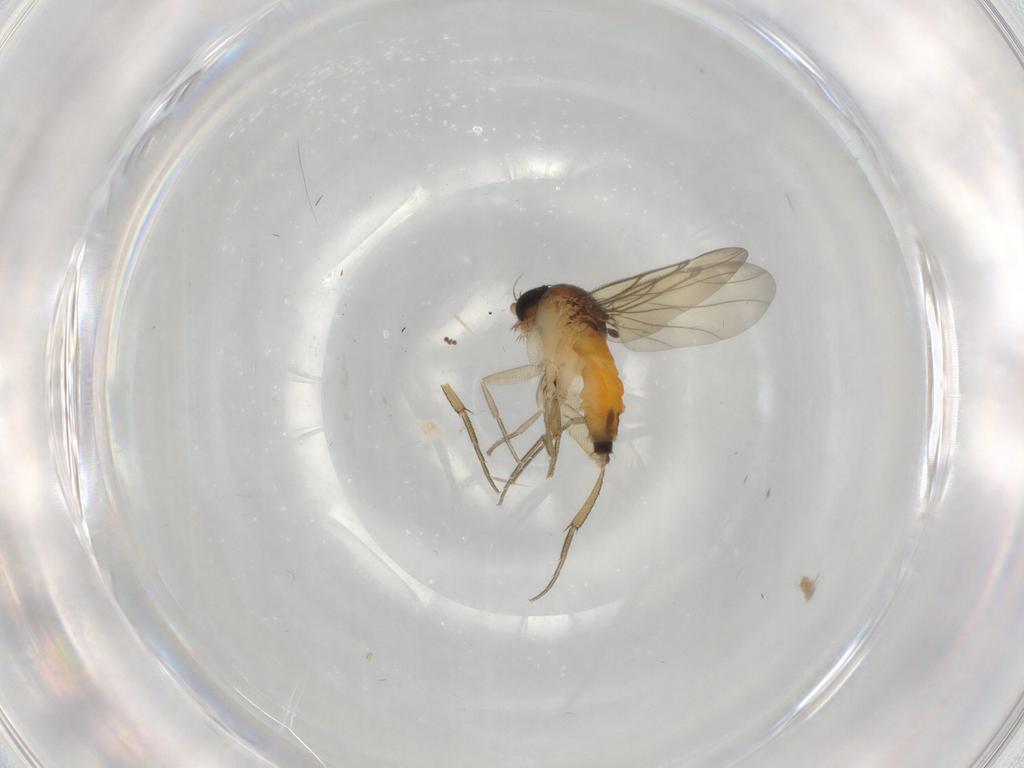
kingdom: Animalia
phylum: Arthropoda
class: Insecta
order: Diptera
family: Phoridae
